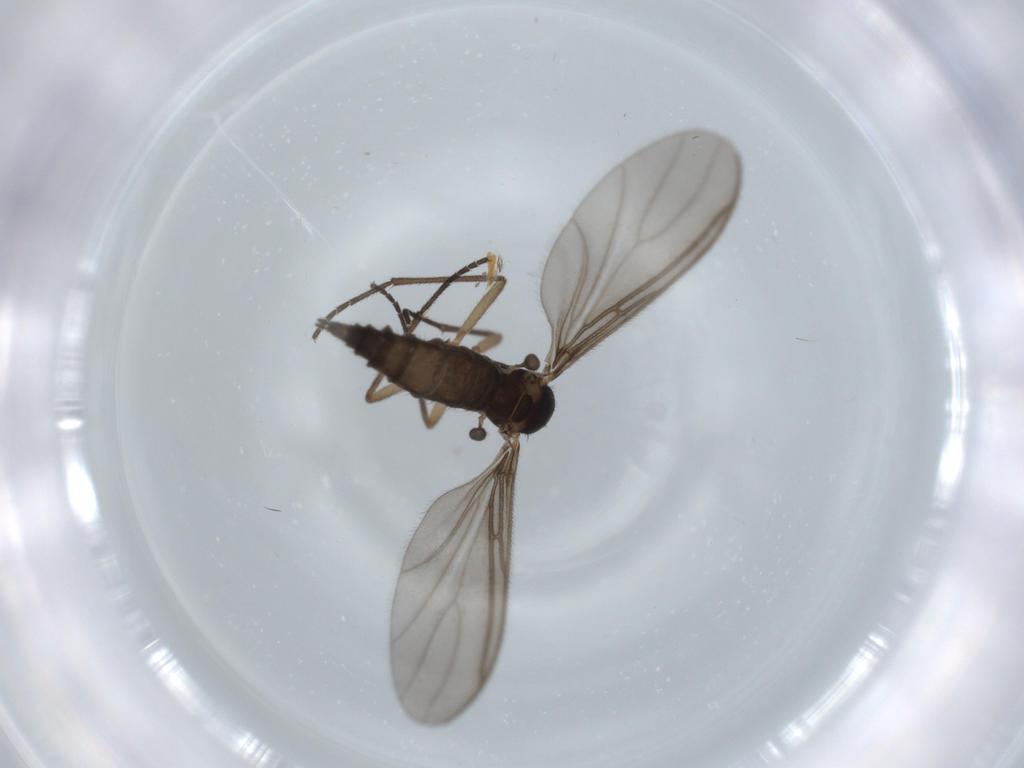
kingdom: Animalia
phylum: Arthropoda
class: Insecta
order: Diptera
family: Sciaridae
